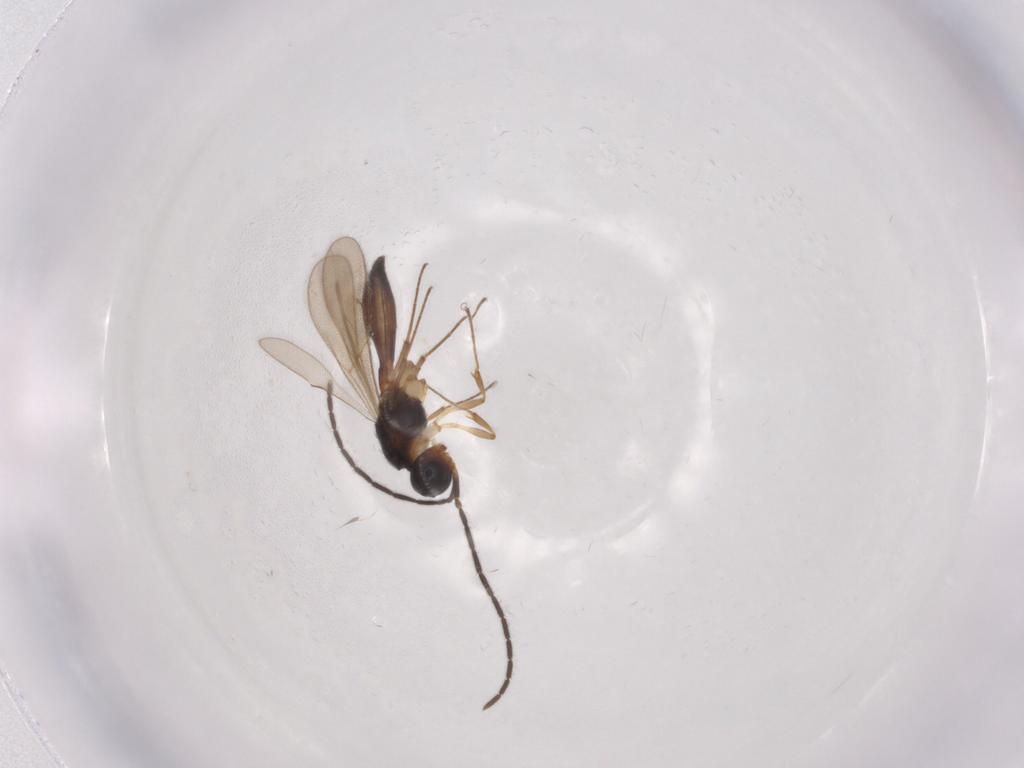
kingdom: Animalia
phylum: Arthropoda
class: Insecta
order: Hymenoptera
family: Scelionidae
